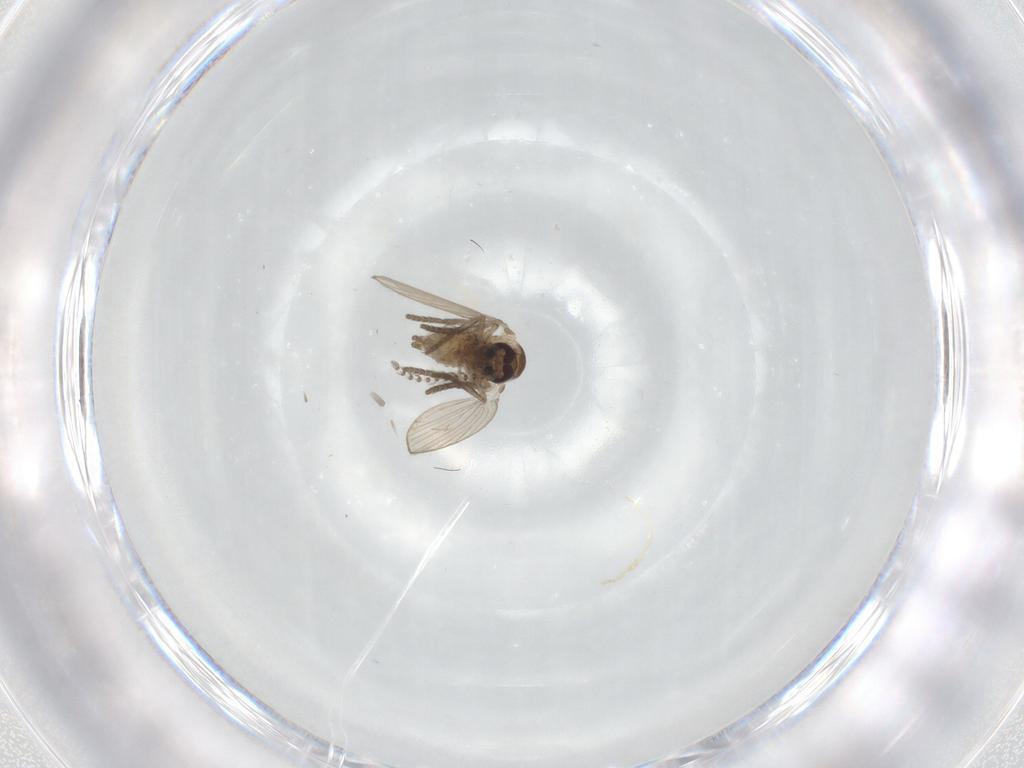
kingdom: Animalia
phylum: Arthropoda
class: Insecta
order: Diptera
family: Psychodidae
